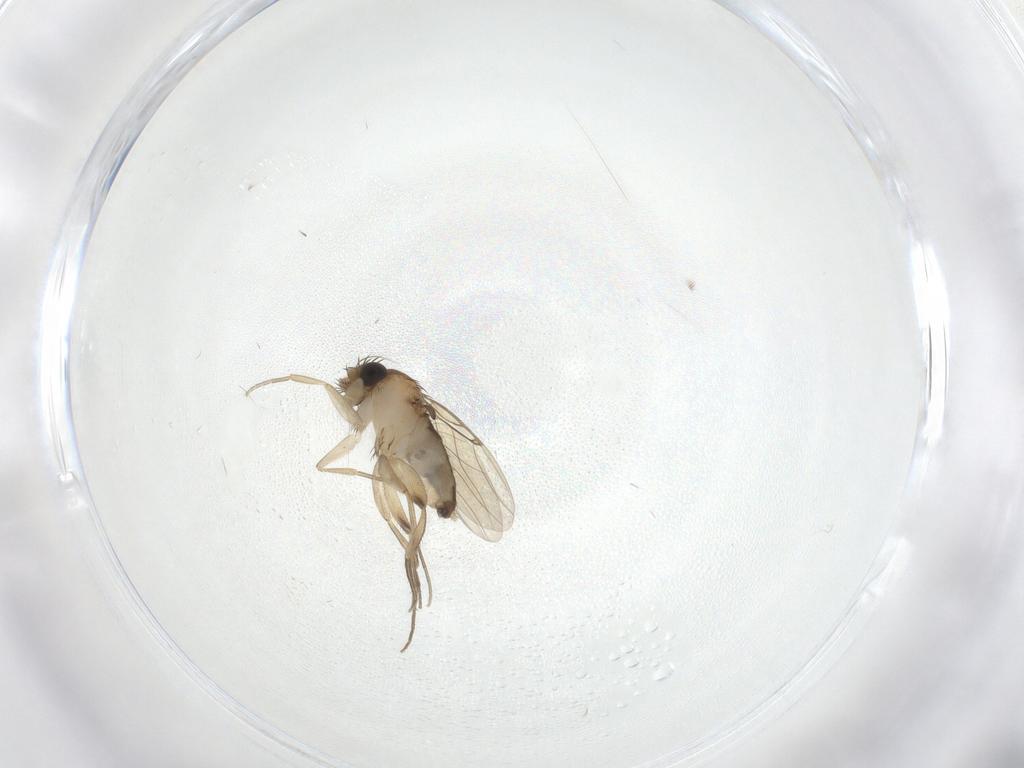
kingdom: Animalia
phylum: Arthropoda
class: Insecta
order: Diptera
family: Phoridae
